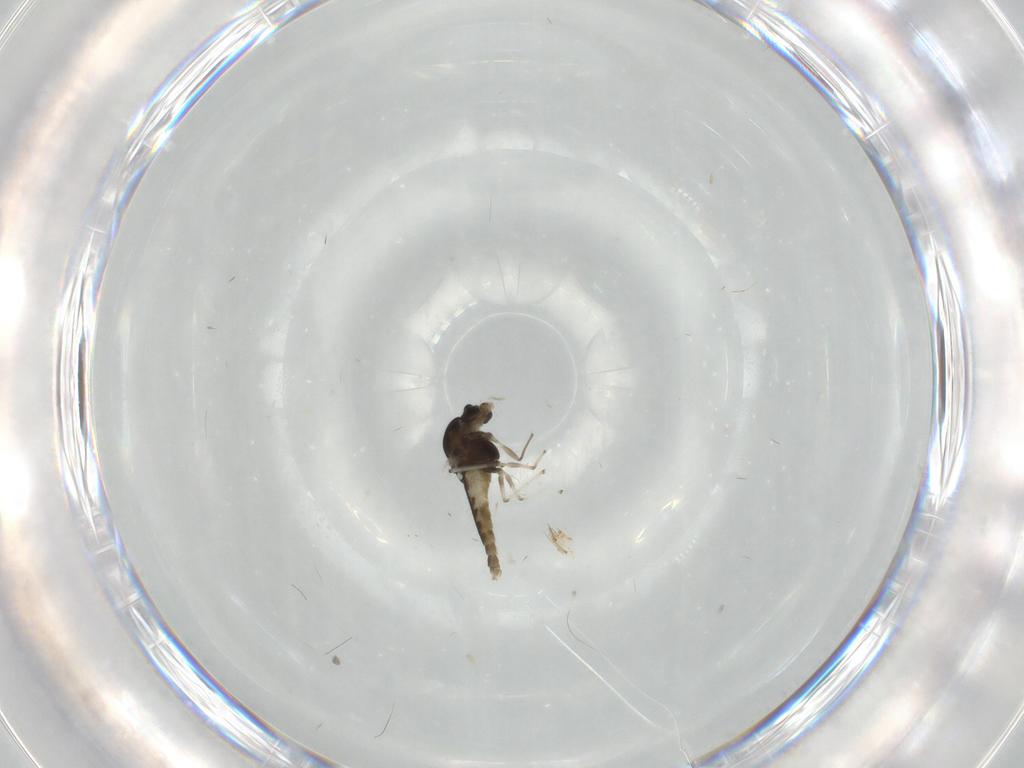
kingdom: Animalia
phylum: Arthropoda
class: Insecta
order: Diptera
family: Chironomidae
